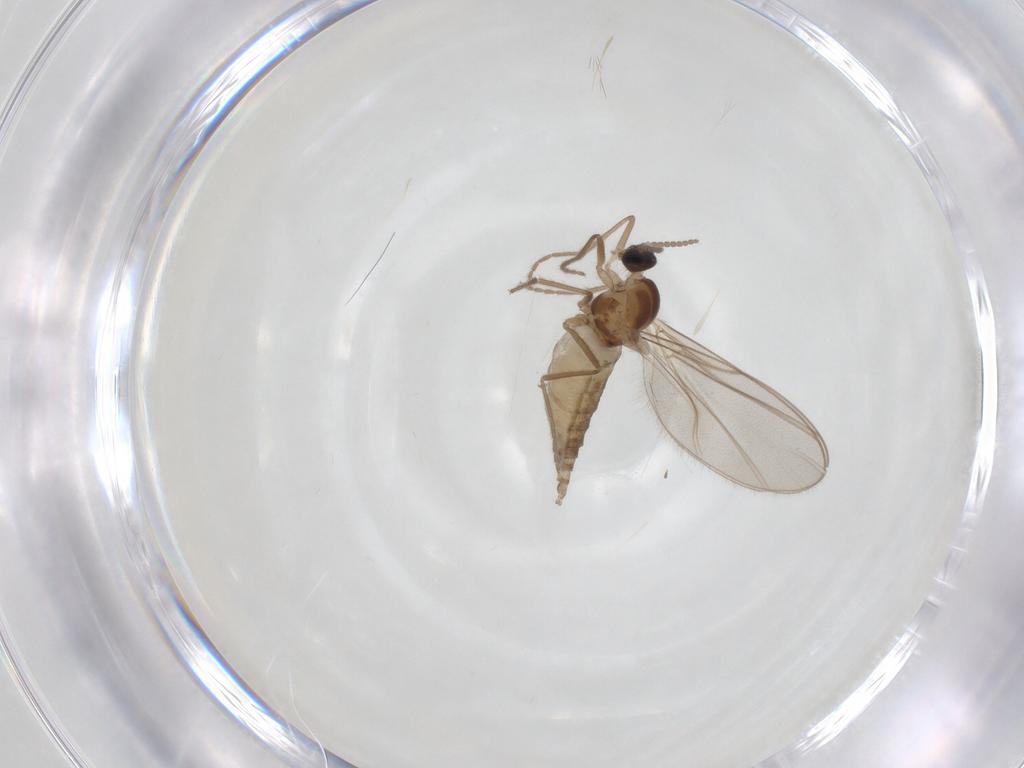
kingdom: Animalia
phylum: Arthropoda
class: Insecta
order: Diptera
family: Cecidomyiidae
